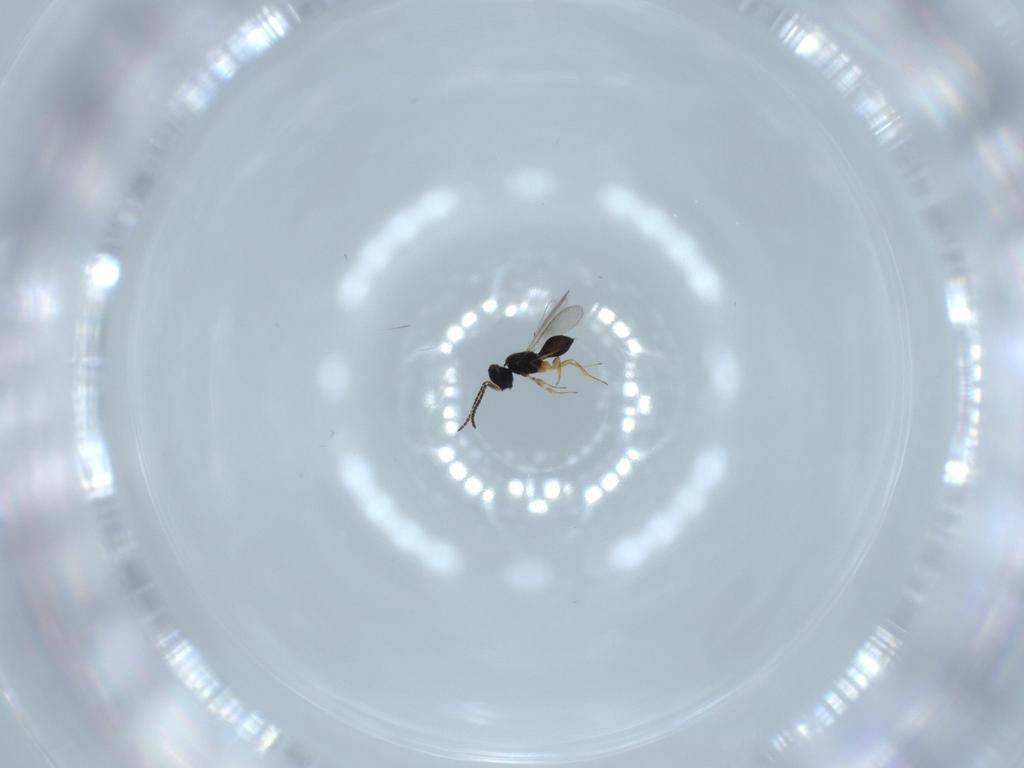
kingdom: Animalia
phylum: Arthropoda
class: Insecta
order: Hymenoptera
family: Scelionidae
